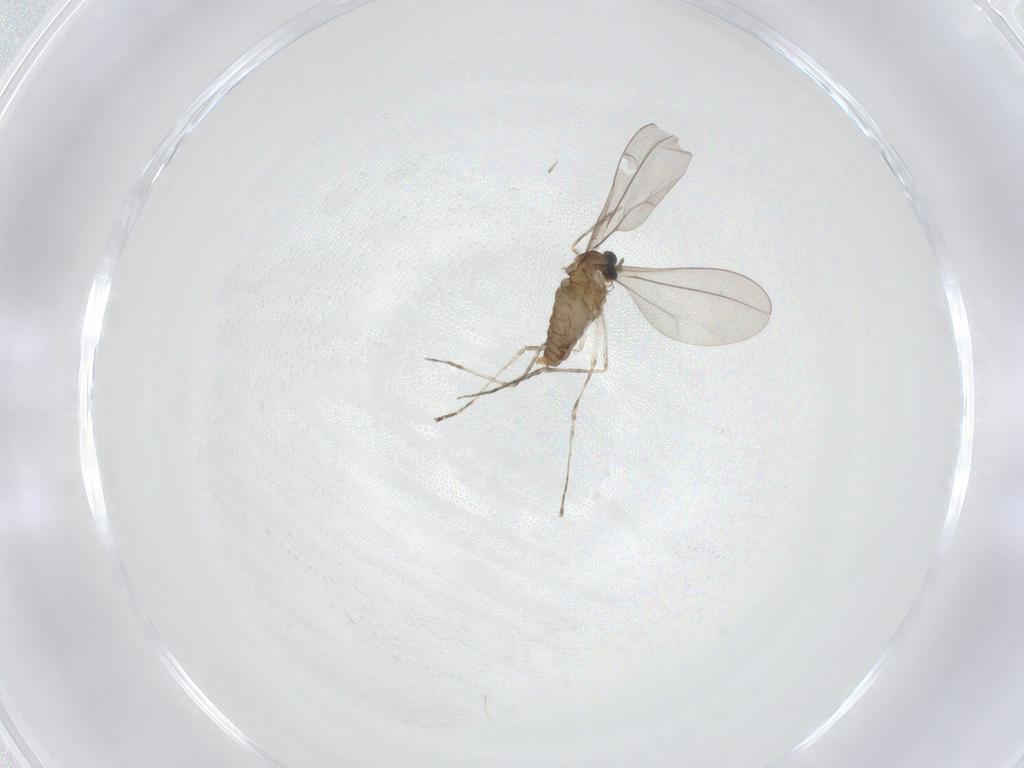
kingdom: Animalia
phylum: Arthropoda
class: Insecta
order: Diptera
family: Cecidomyiidae
